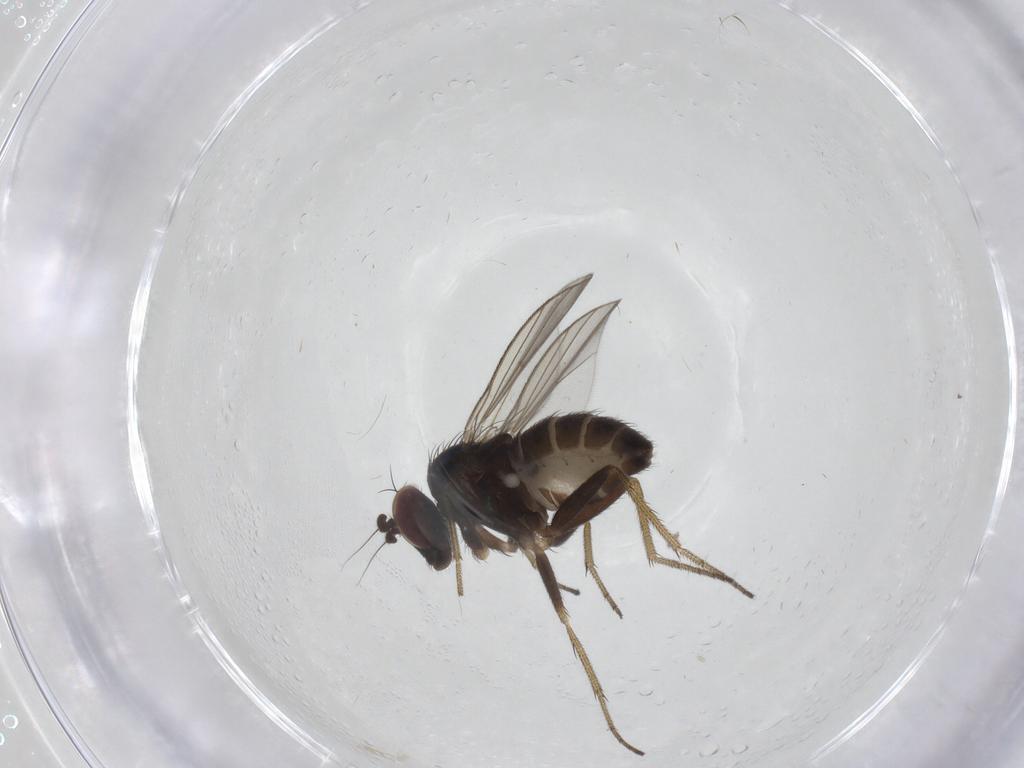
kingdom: Animalia
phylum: Arthropoda
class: Insecta
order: Diptera
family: Dolichopodidae
